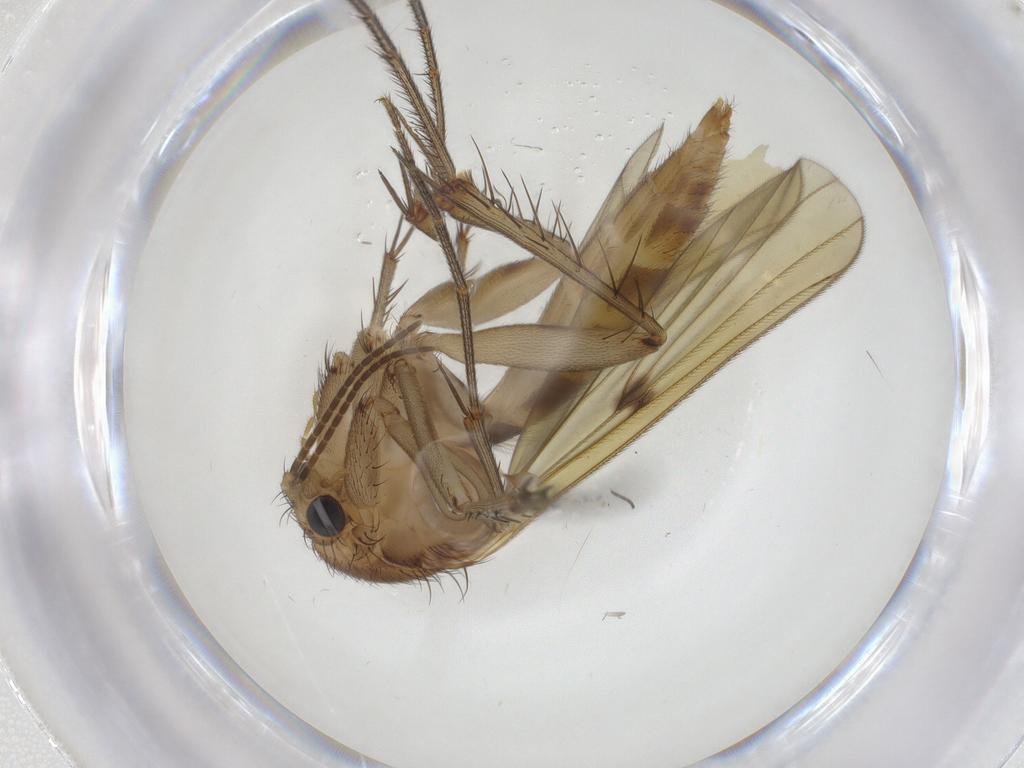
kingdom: Animalia
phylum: Arthropoda
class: Insecta
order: Diptera
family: Mycetophilidae
